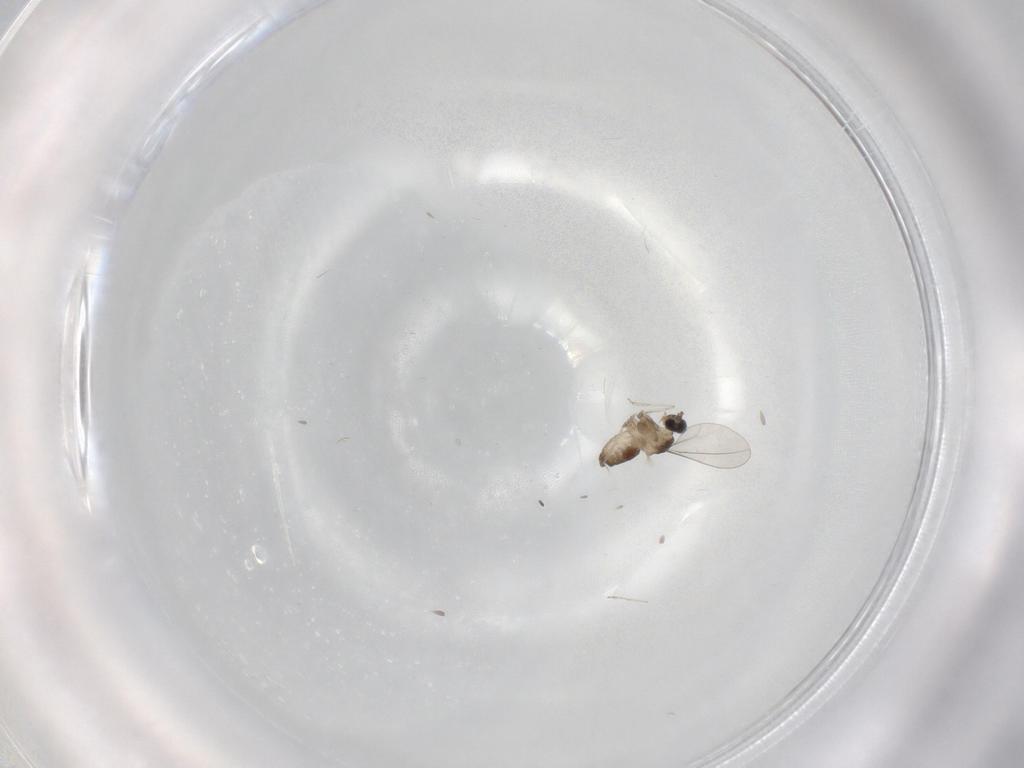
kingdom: Animalia
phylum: Arthropoda
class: Insecta
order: Diptera
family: Cecidomyiidae
